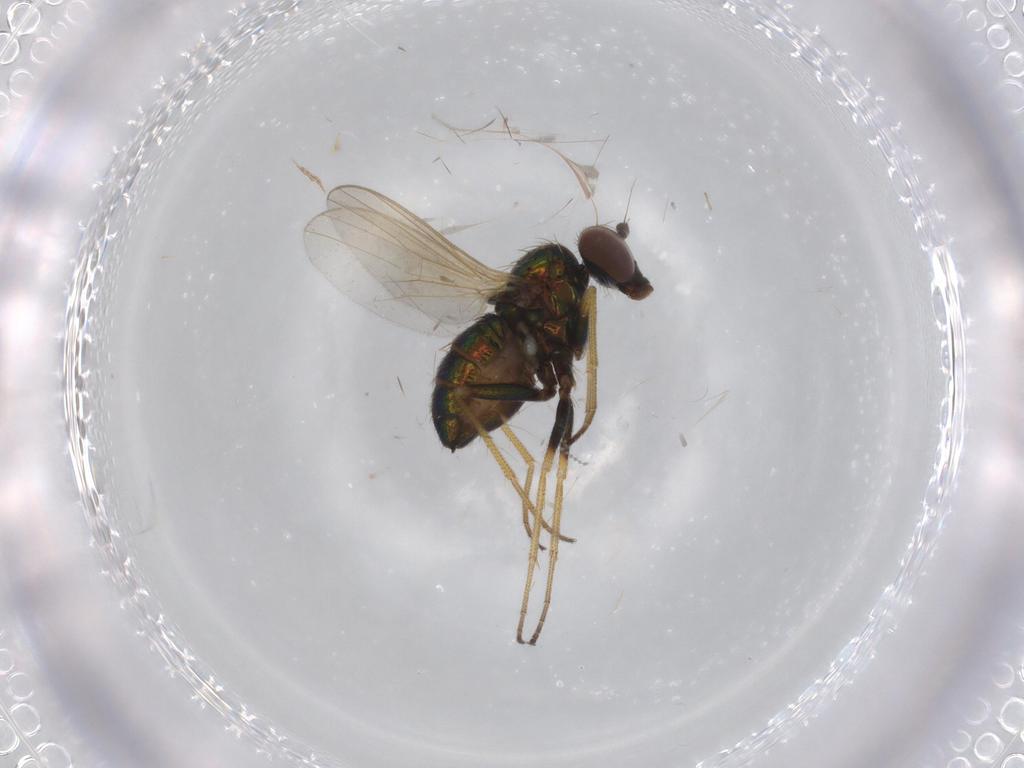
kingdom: Animalia
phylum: Arthropoda
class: Insecta
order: Diptera
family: Dolichopodidae
